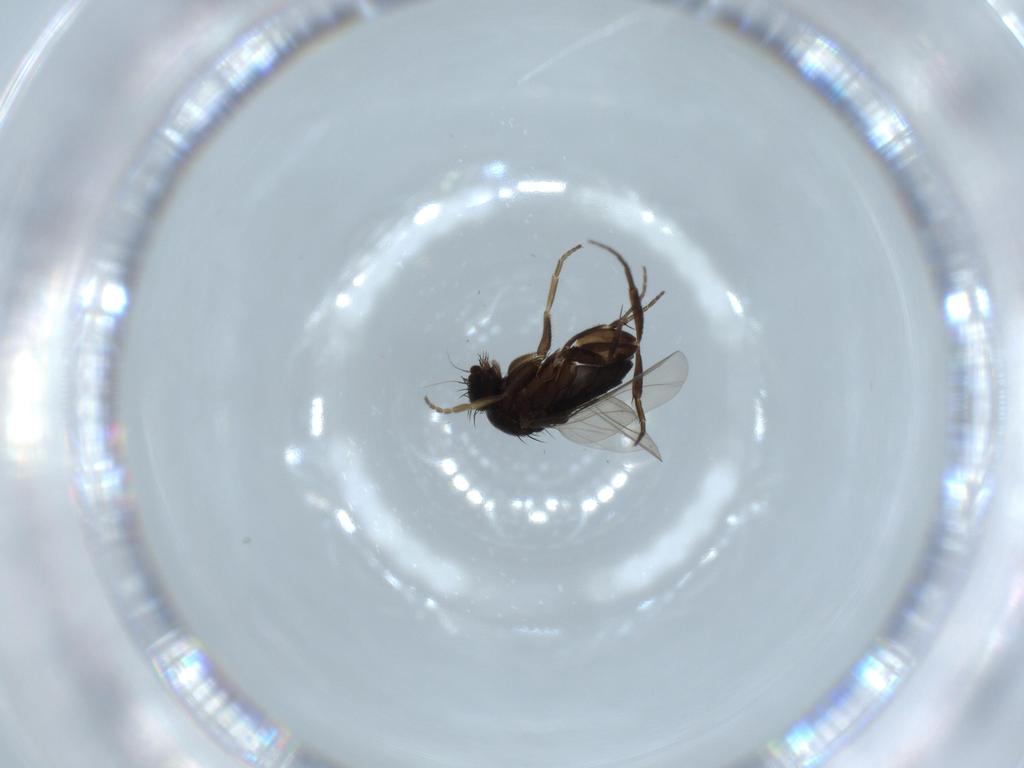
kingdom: Animalia
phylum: Arthropoda
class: Insecta
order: Diptera
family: Phoridae
